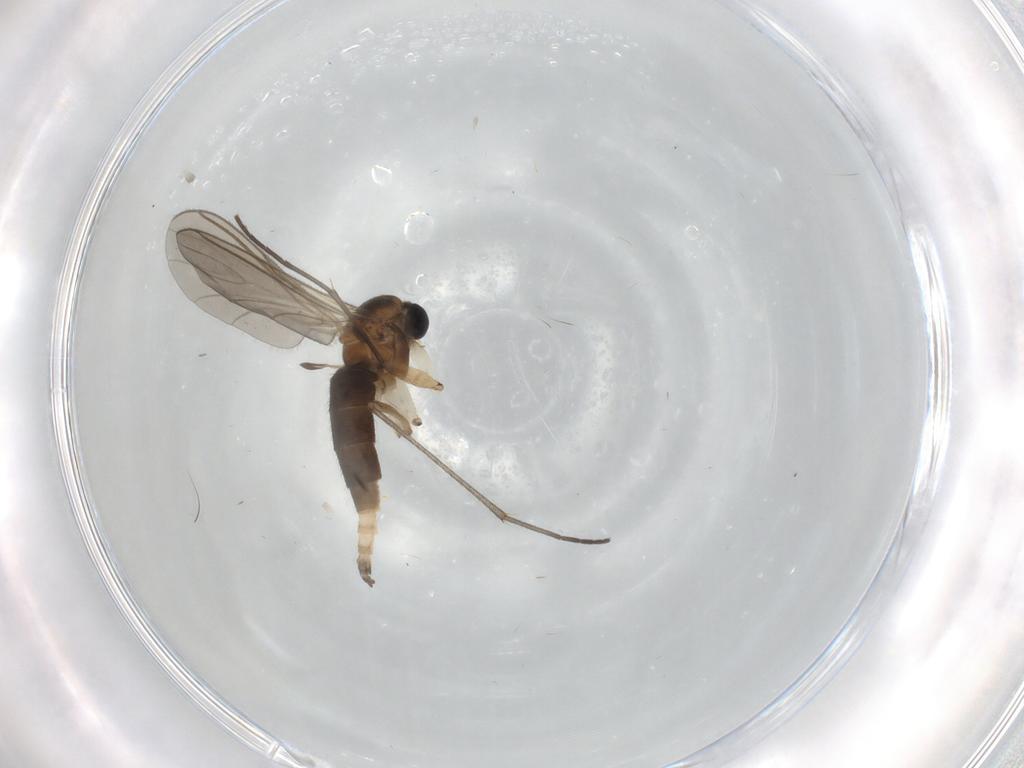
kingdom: Animalia
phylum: Arthropoda
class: Insecta
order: Diptera
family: Sciaridae
